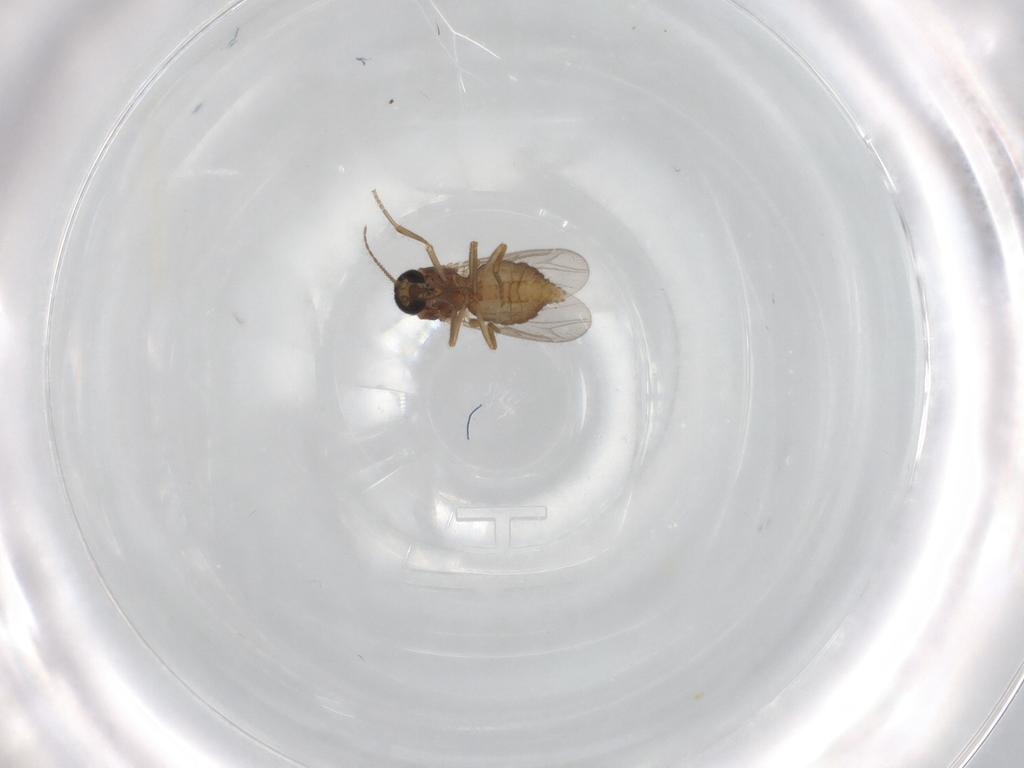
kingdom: Animalia
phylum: Arthropoda
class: Insecta
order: Diptera
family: Ceratopogonidae
